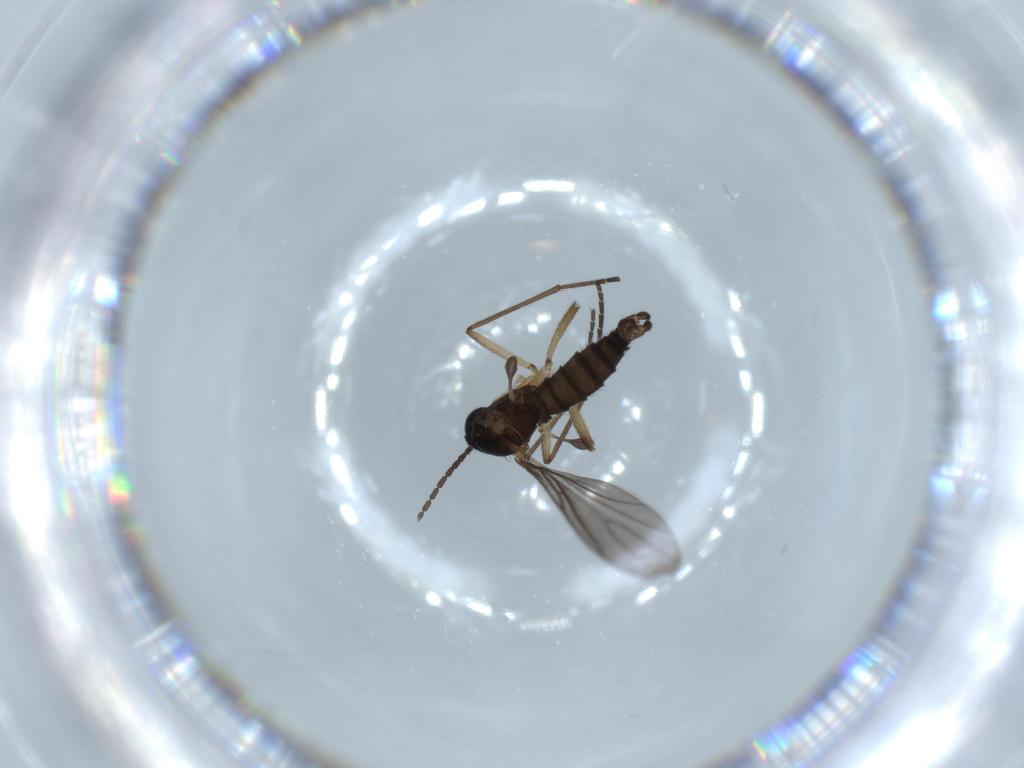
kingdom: Animalia
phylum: Arthropoda
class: Insecta
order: Diptera
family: Sciaridae
